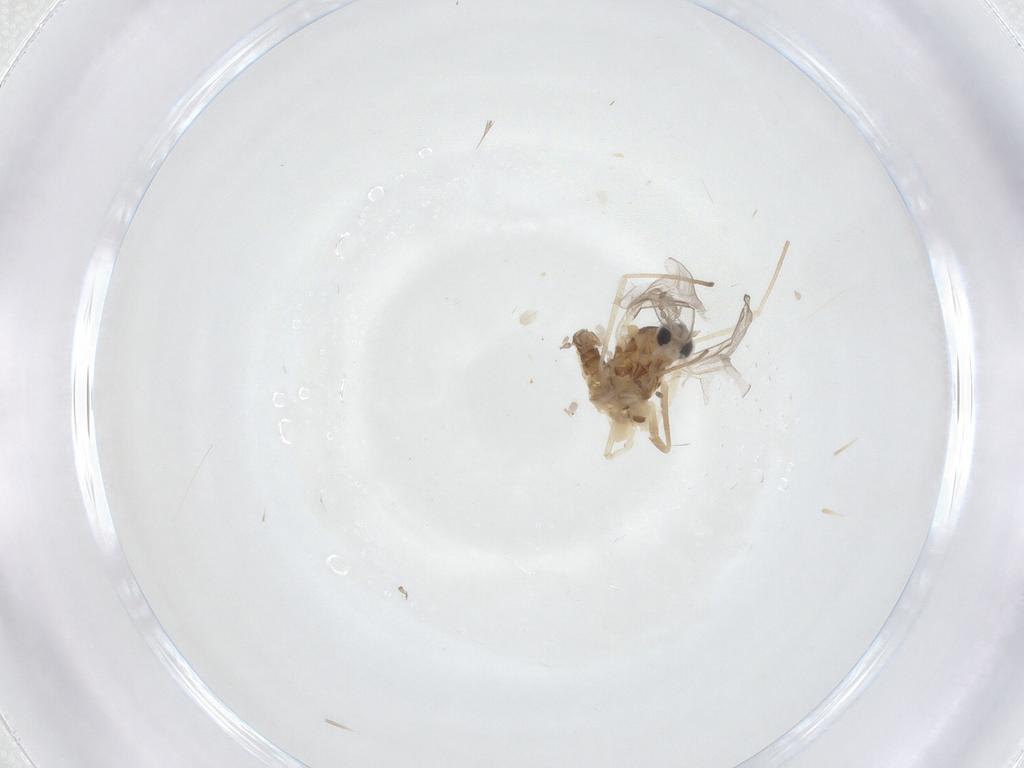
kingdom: Animalia
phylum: Arthropoda
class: Insecta
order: Diptera
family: Cecidomyiidae
